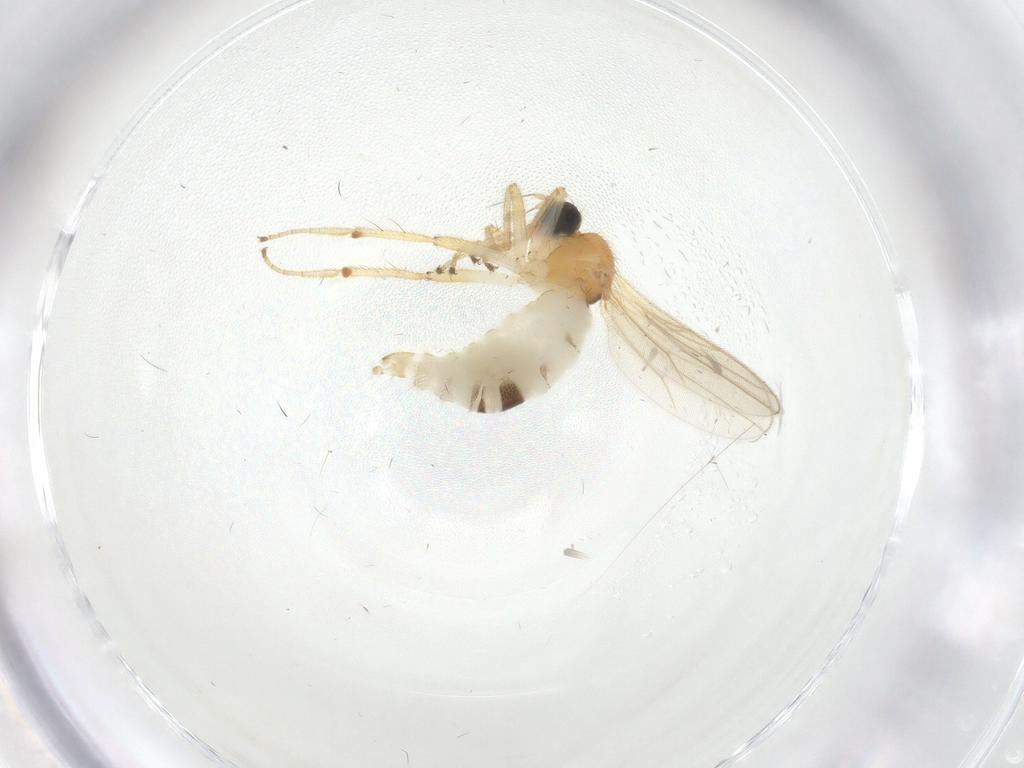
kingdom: Animalia
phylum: Arthropoda
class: Insecta
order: Diptera
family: Hybotidae
